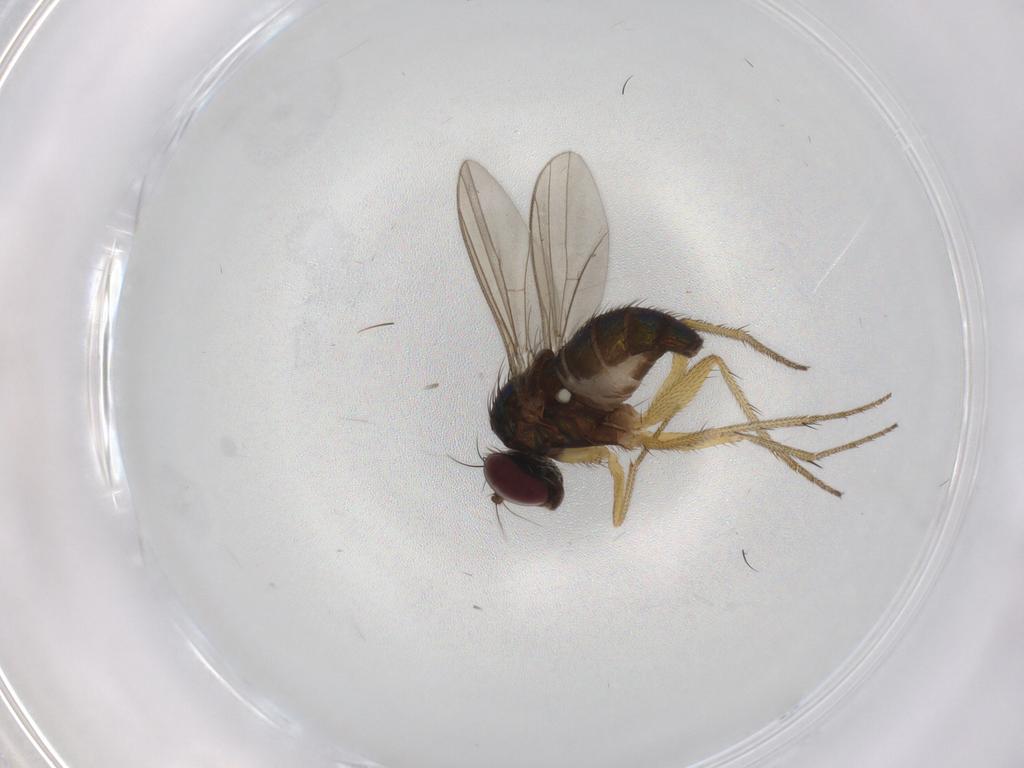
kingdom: Animalia
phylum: Arthropoda
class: Insecta
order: Diptera
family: Dolichopodidae
